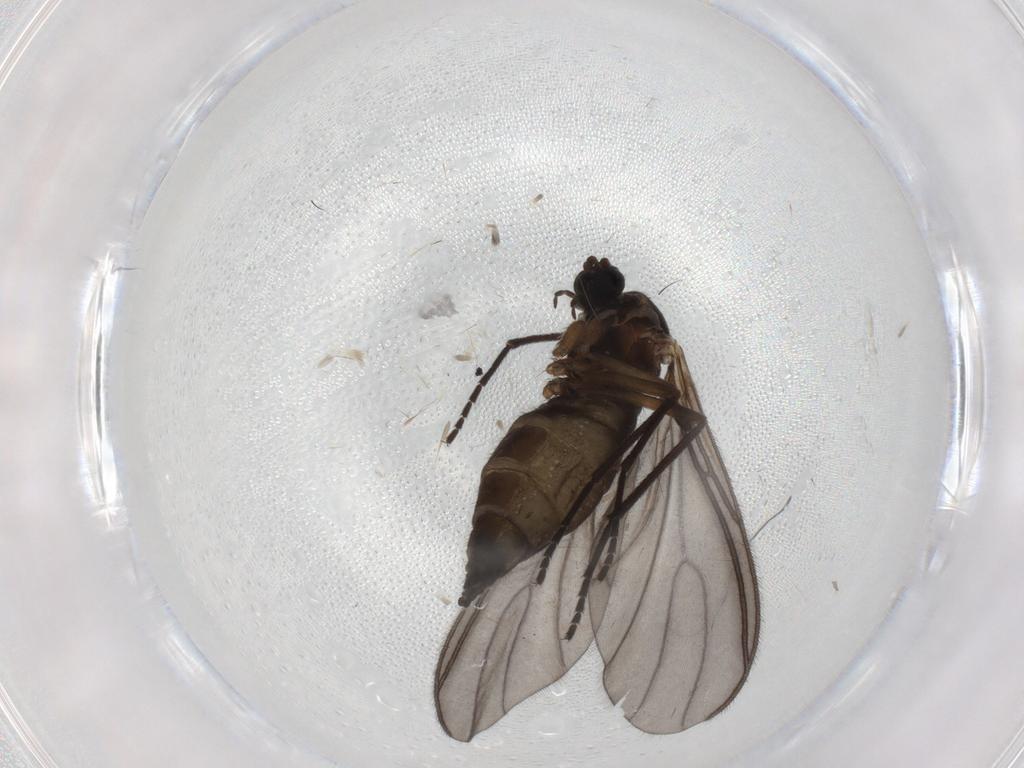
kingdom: Animalia
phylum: Arthropoda
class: Insecta
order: Diptera
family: Sciaridae
